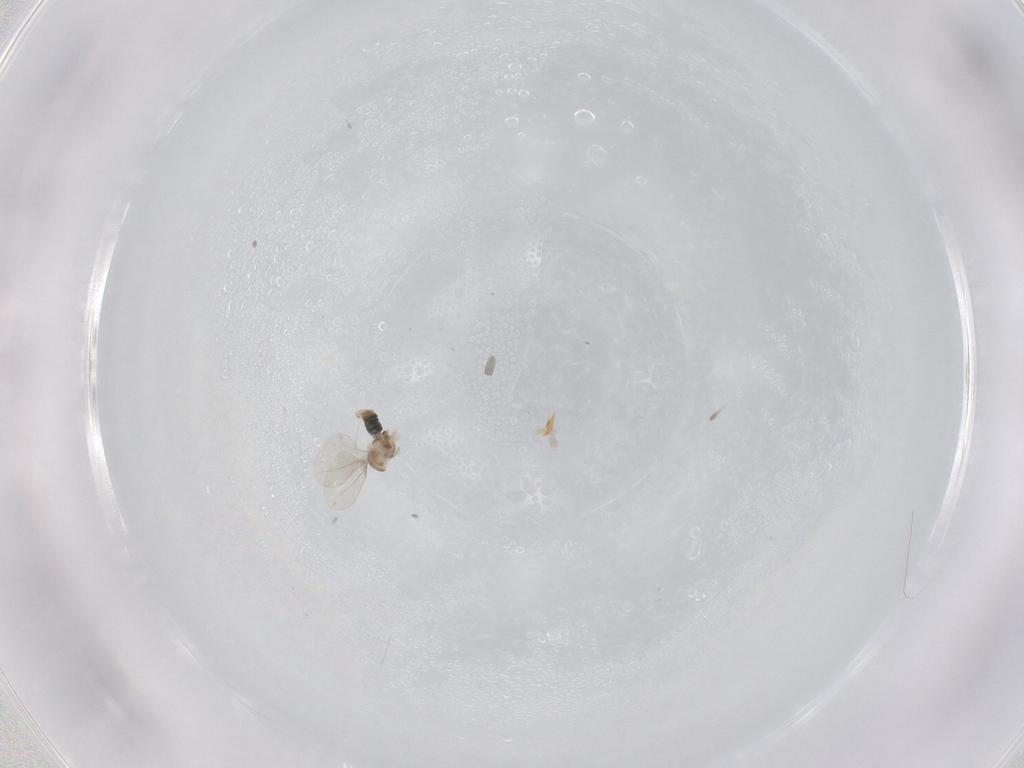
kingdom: Animalia
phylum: Arthropoda
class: Insecta
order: Diptera
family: Cecidomyiidae
